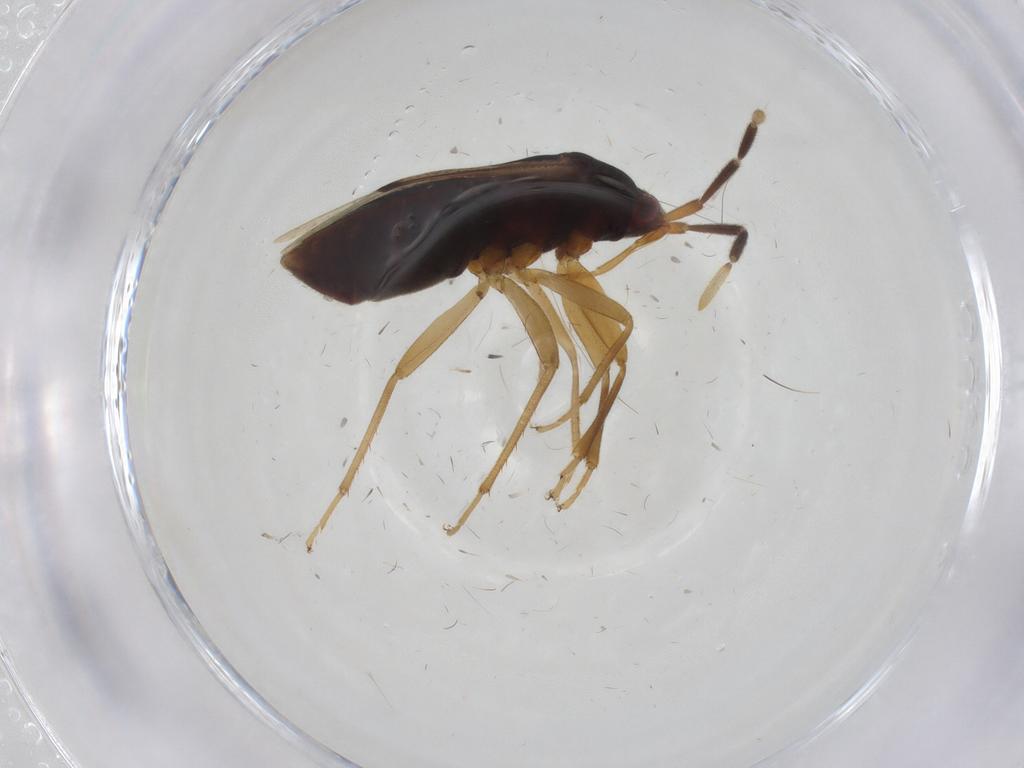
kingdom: Animalia
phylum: Arthropoda
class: Insecta
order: Hemiptera
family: Rhyparochromidae
